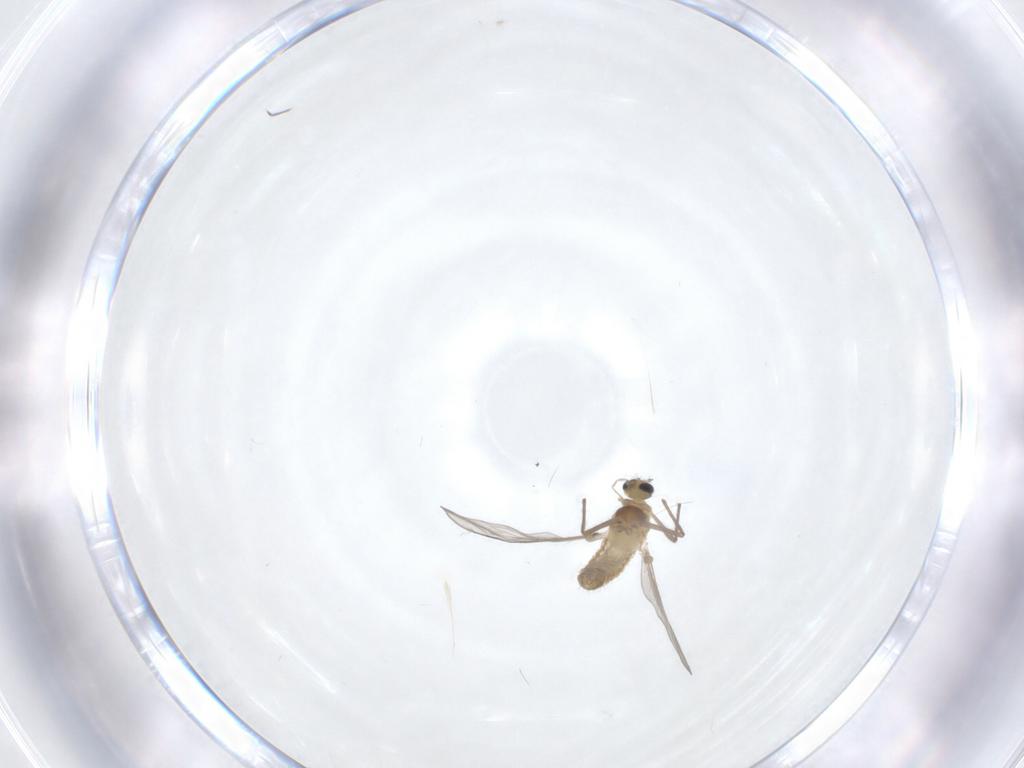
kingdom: Animalia
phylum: Arthropoda
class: Insecta
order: Diptera
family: Chironomidae
